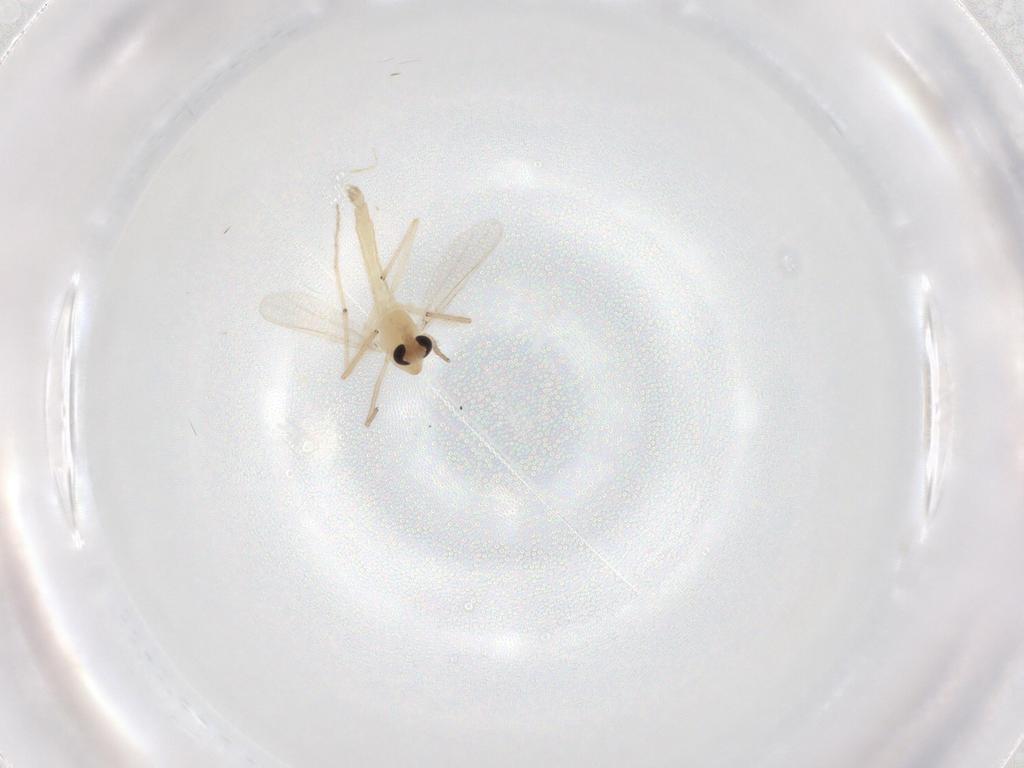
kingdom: Animalia
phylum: Arthropoda
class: Insecta
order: Diptera
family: Chironomidae
